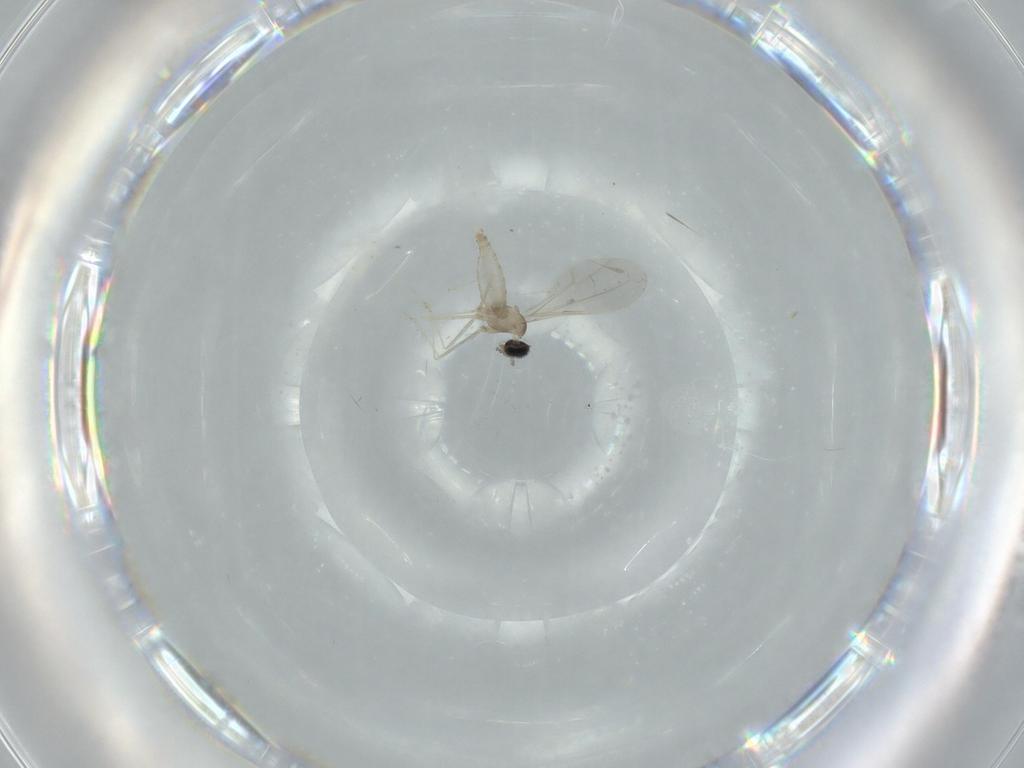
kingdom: Animalia
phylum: Arthropoda
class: Insecta
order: Diptera
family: Cecidomyiidae
